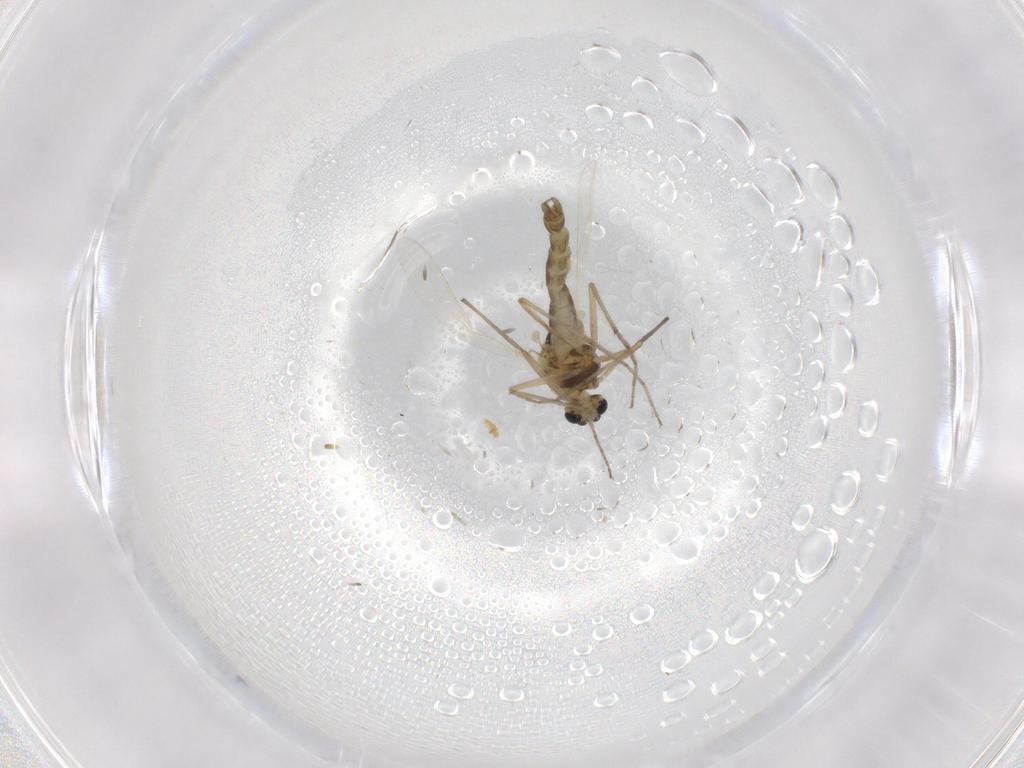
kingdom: Animalia
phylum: Arthropoda
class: Insecta
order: Diptera
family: Chironomidae
